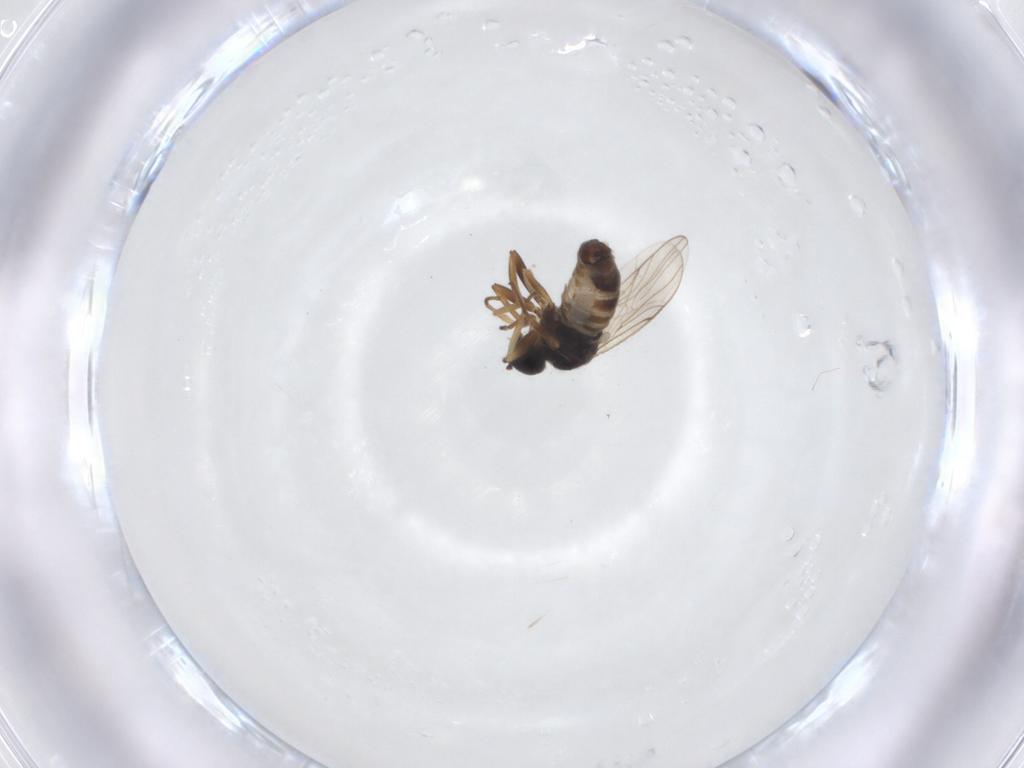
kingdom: Animalia
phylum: Arthropoda
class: Insecta
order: Diptera
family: Hybotidae
